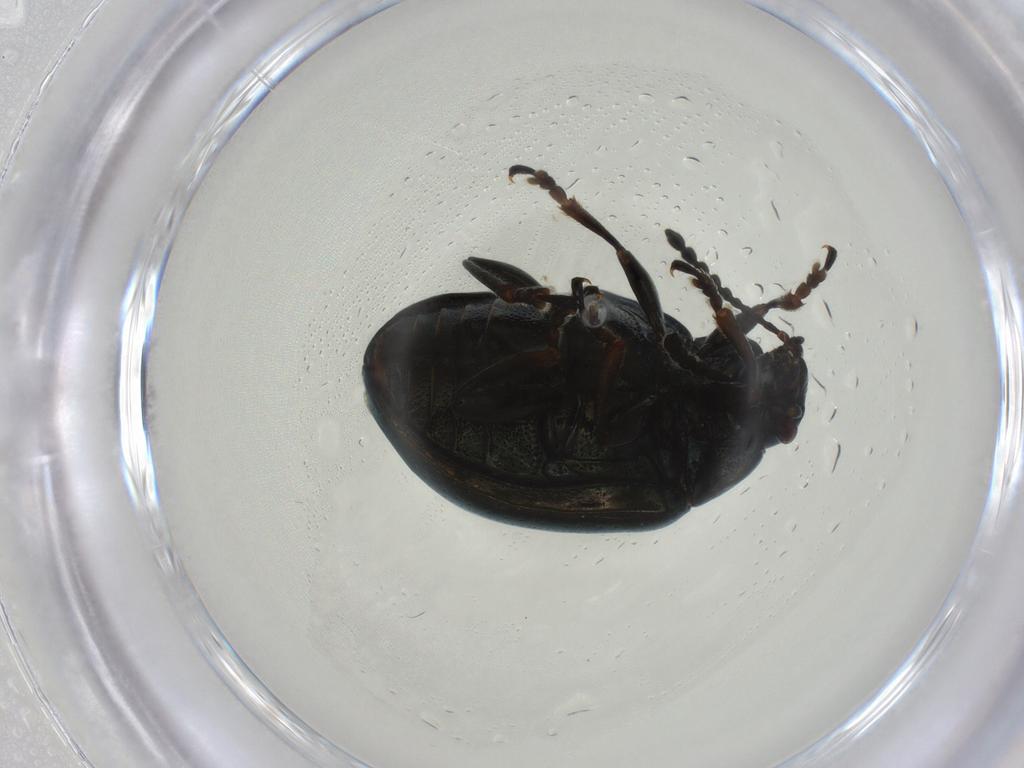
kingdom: Animalia
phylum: Arthropoda
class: Insecta
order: Coleoptera
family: Chrysomelidae
